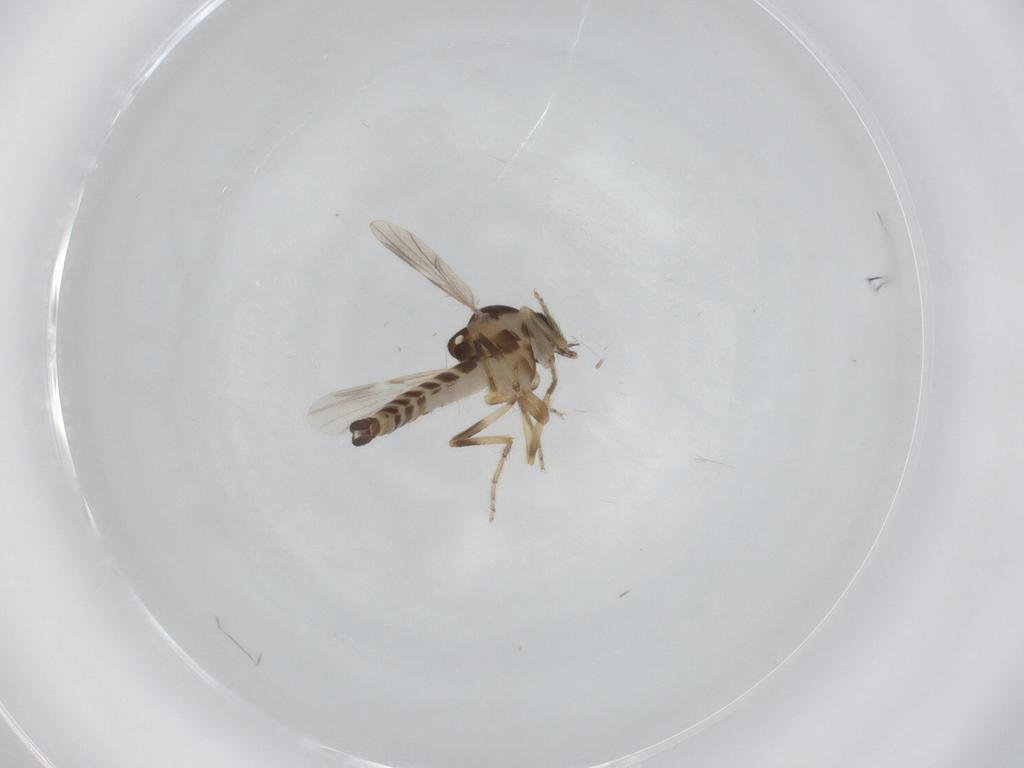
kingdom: Animalia
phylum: Arthropoda
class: Insecta
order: Diptera
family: Ceratopogonidae
